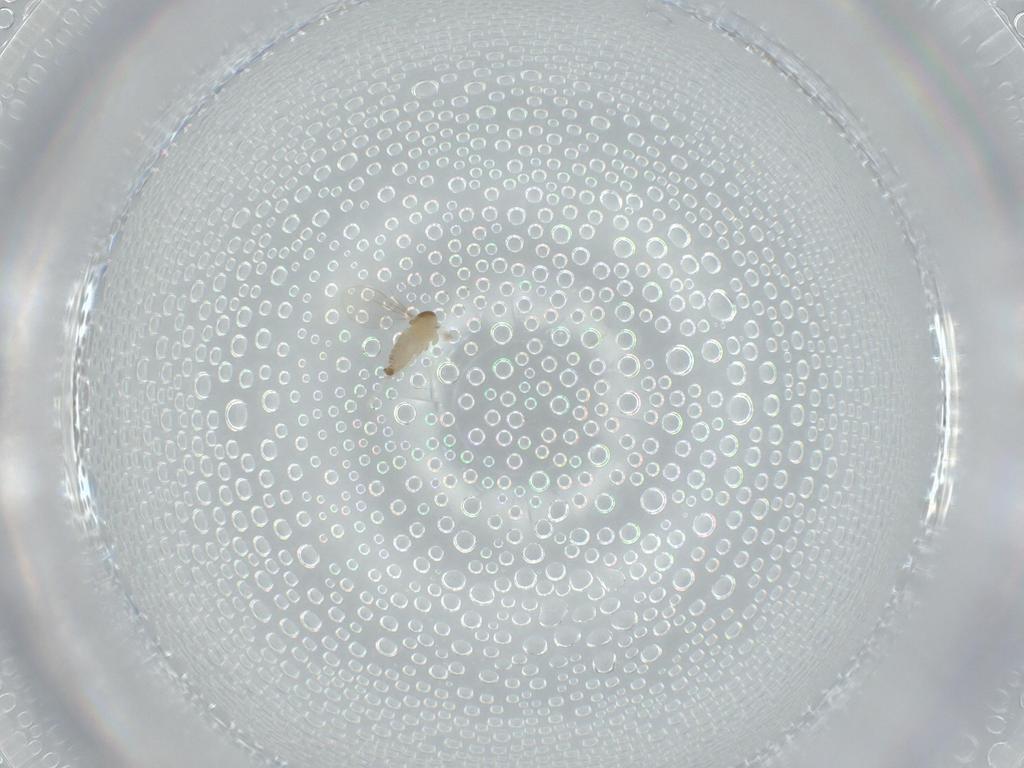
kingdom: Animalia
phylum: Arthropoda
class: Insecta
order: Diptera
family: Cecidomyiidae
